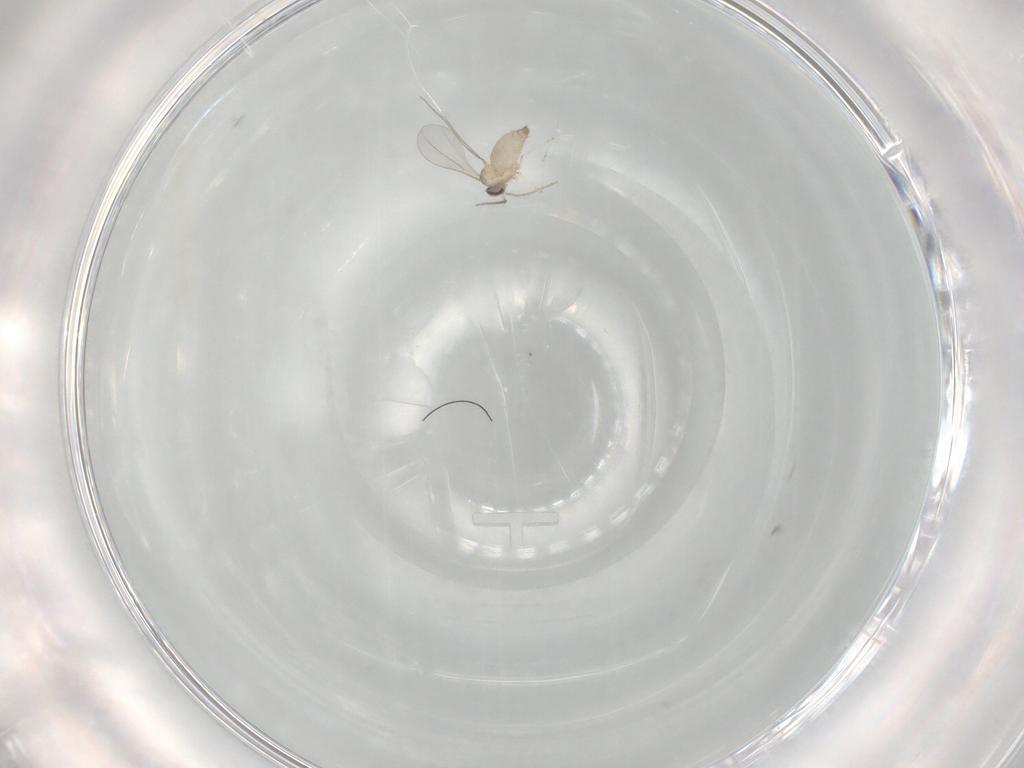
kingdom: Animalia
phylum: Arthropoda
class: Insecta
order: Diptera
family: Cecidomyiidae
